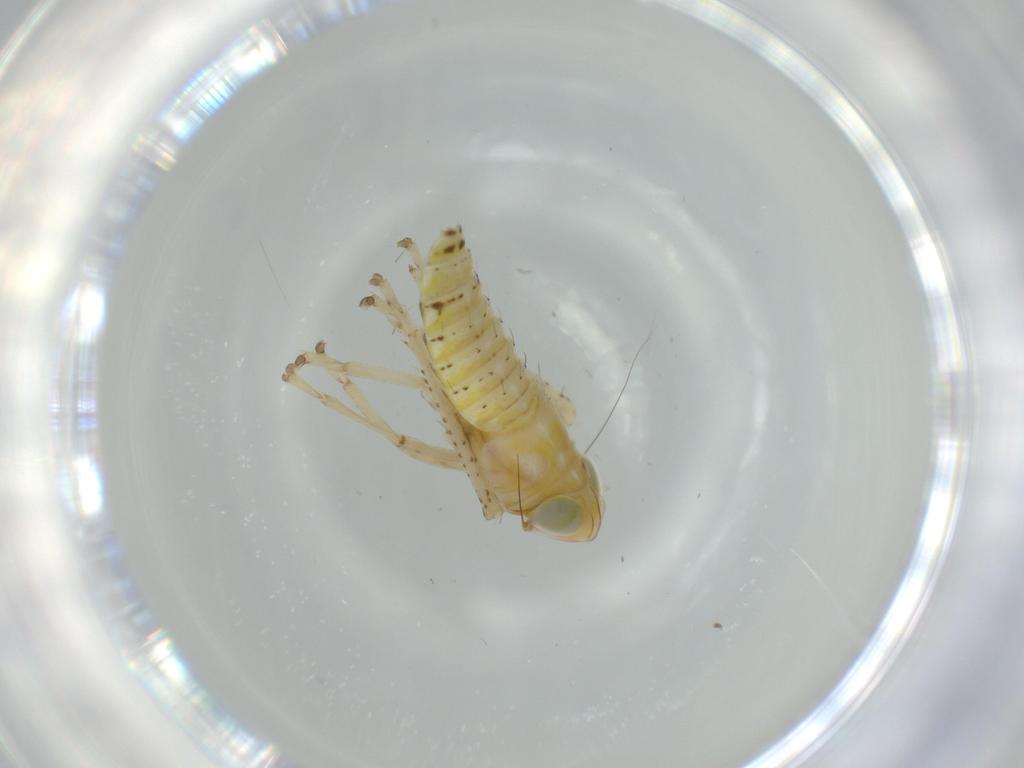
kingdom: Animalia
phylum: Arthropoda
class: Insecta
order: Hemiptera
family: Cicadellidae
